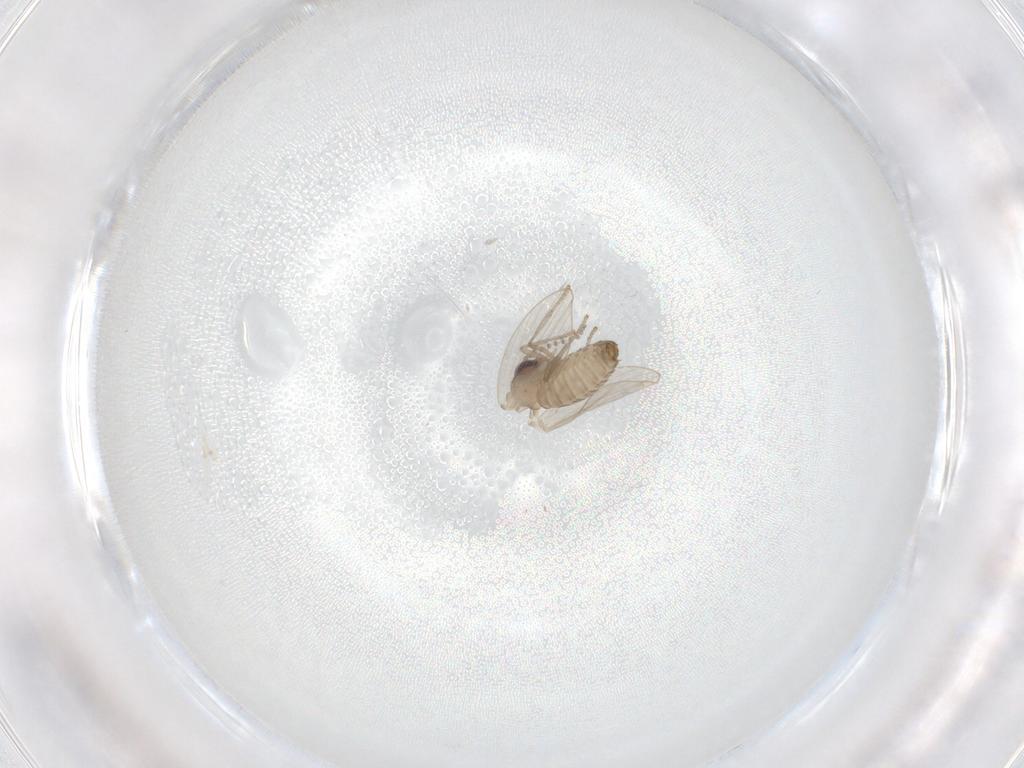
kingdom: Animalia
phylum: Arthropoda
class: Insecta
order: Diptera
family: Psychodidae
